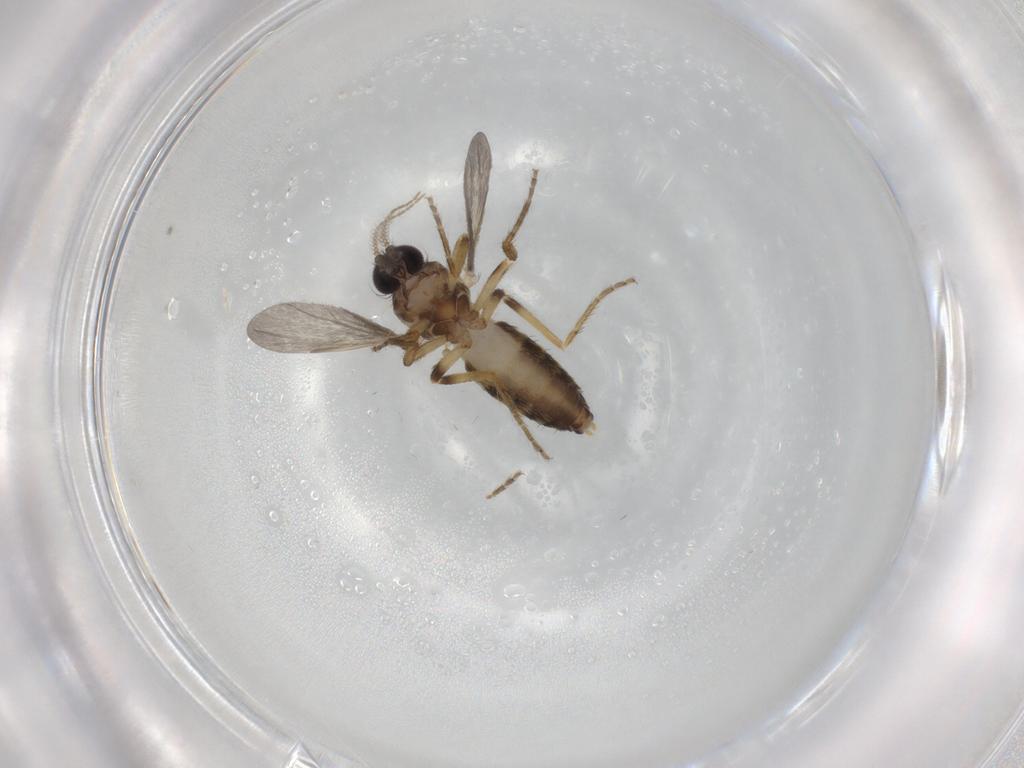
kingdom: Animalia
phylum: Arthropoda
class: Insecta
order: Diptera
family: Ceratopogonidae
